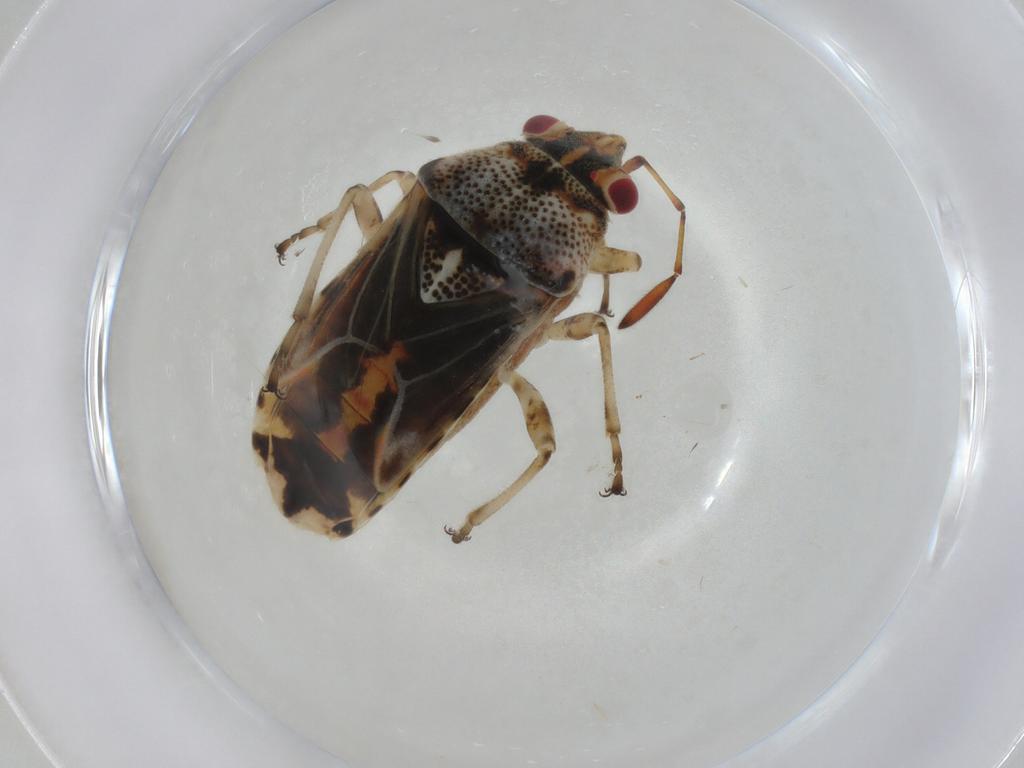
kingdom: Animalia
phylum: Arthropoda
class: Insecta
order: Hemiptera
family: Lygaeidae
